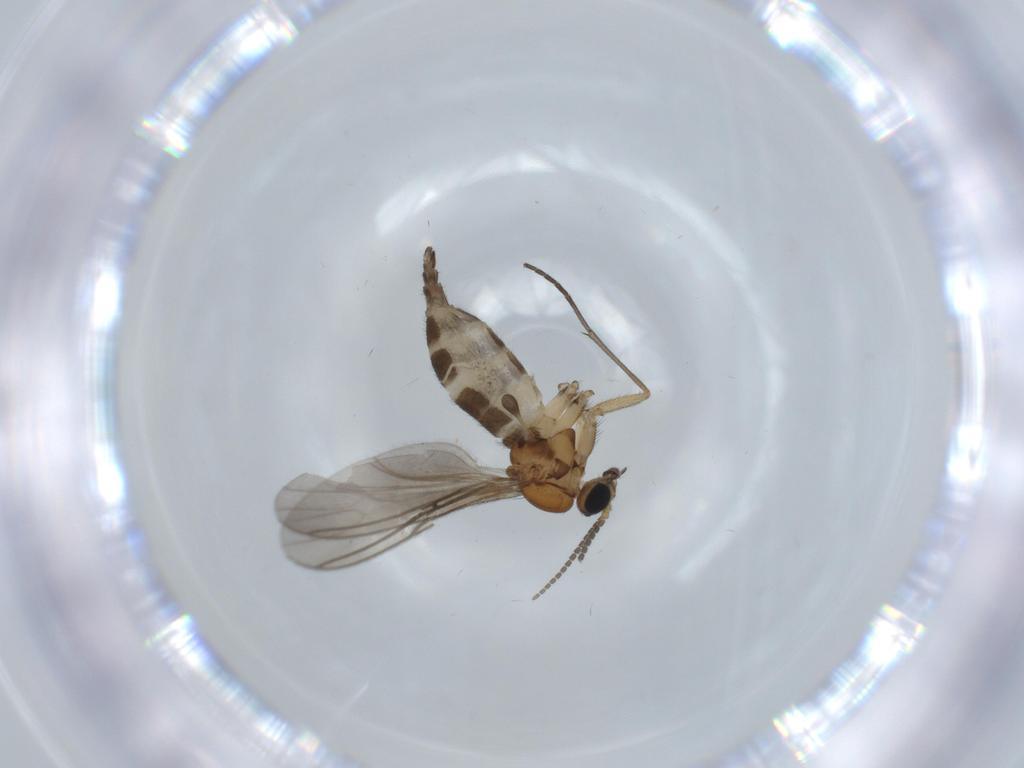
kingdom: Animalia
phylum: Arthropoda
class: Insecta
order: Diptera
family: Sciaridae
